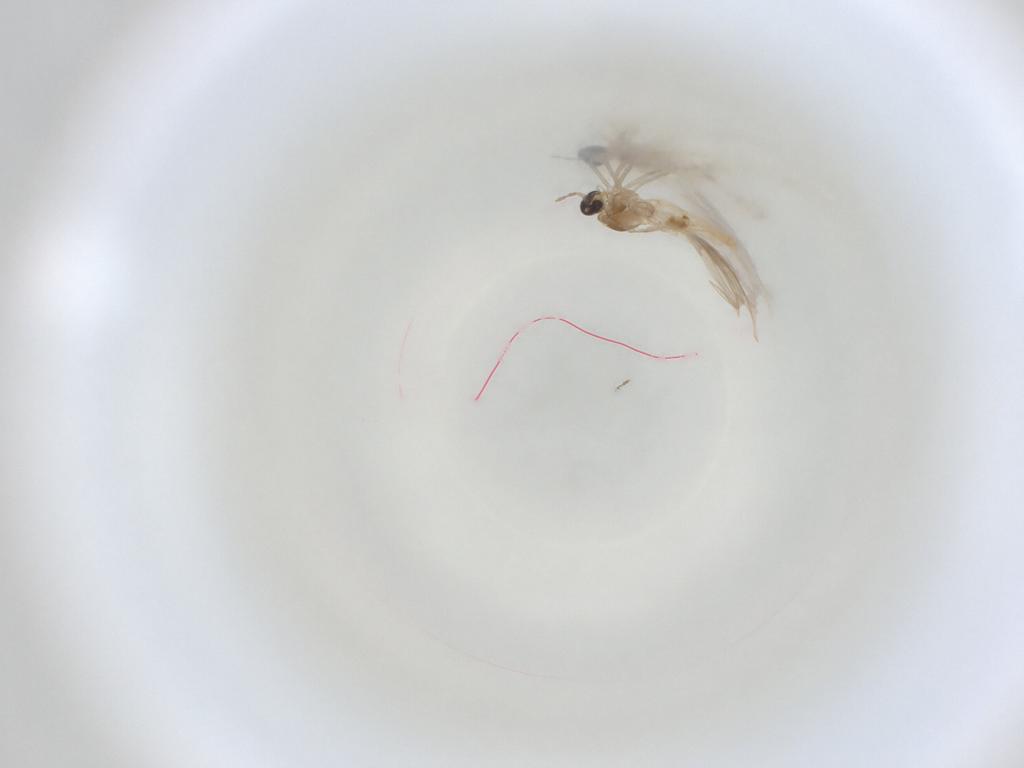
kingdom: Animalia
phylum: Arthropoda
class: Insecta
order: Diptera
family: Cecidomyiidae
